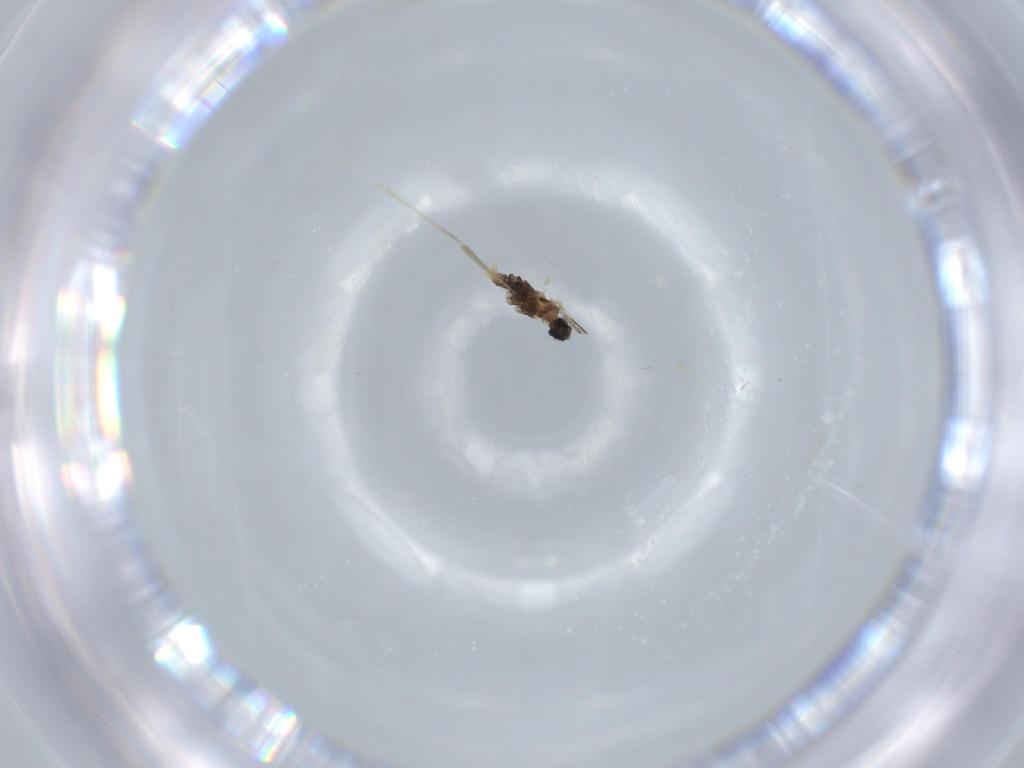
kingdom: Animalia
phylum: Arthropoda
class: Insecta
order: Diptera
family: Cecidomyiidae
